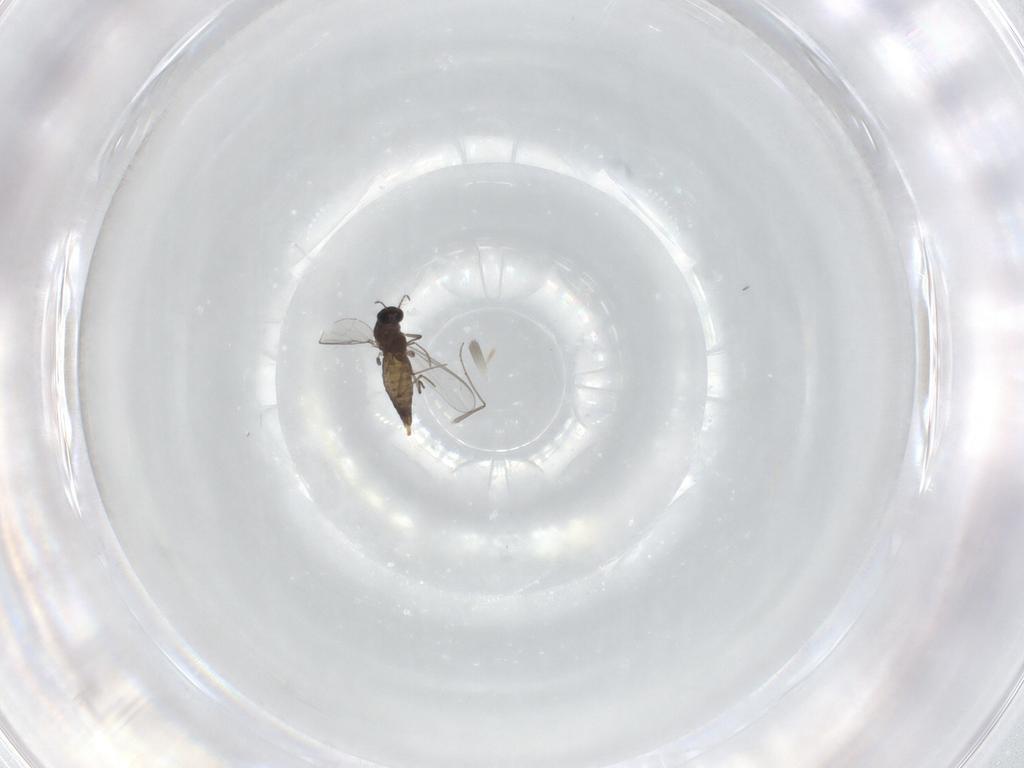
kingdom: Animalia
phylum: Arthropoda
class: Insecta
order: Diptera
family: Chironomidae
